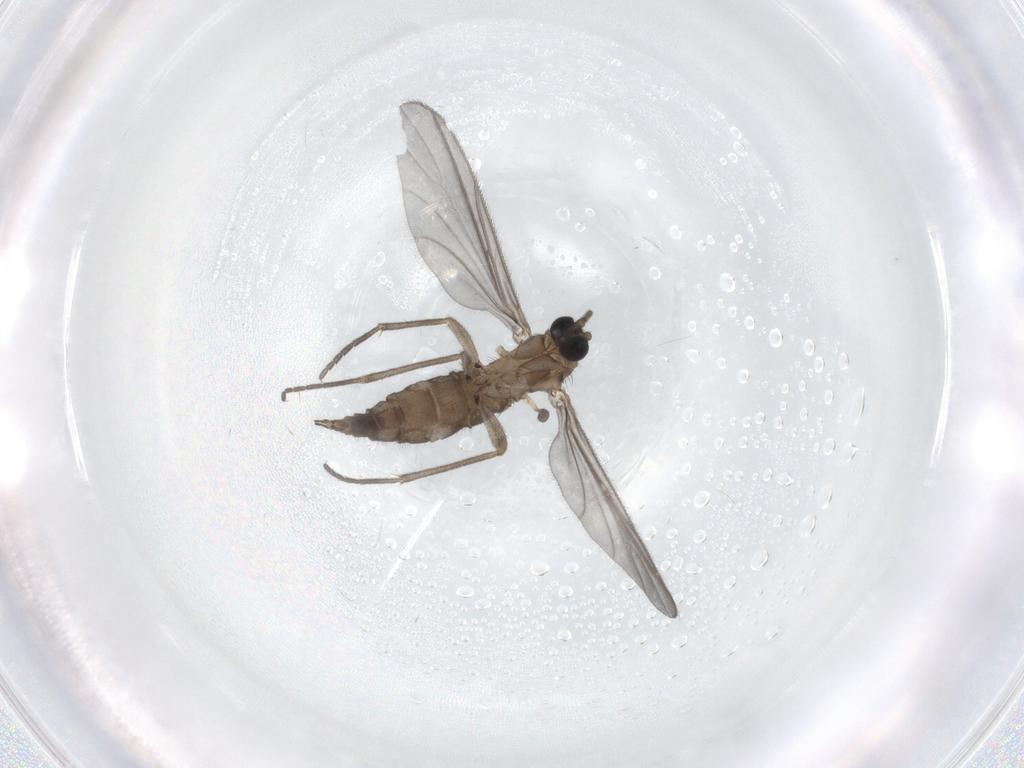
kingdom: Animalia
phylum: Arthropoda
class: Insecta
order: Diptera
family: Sciaridae
